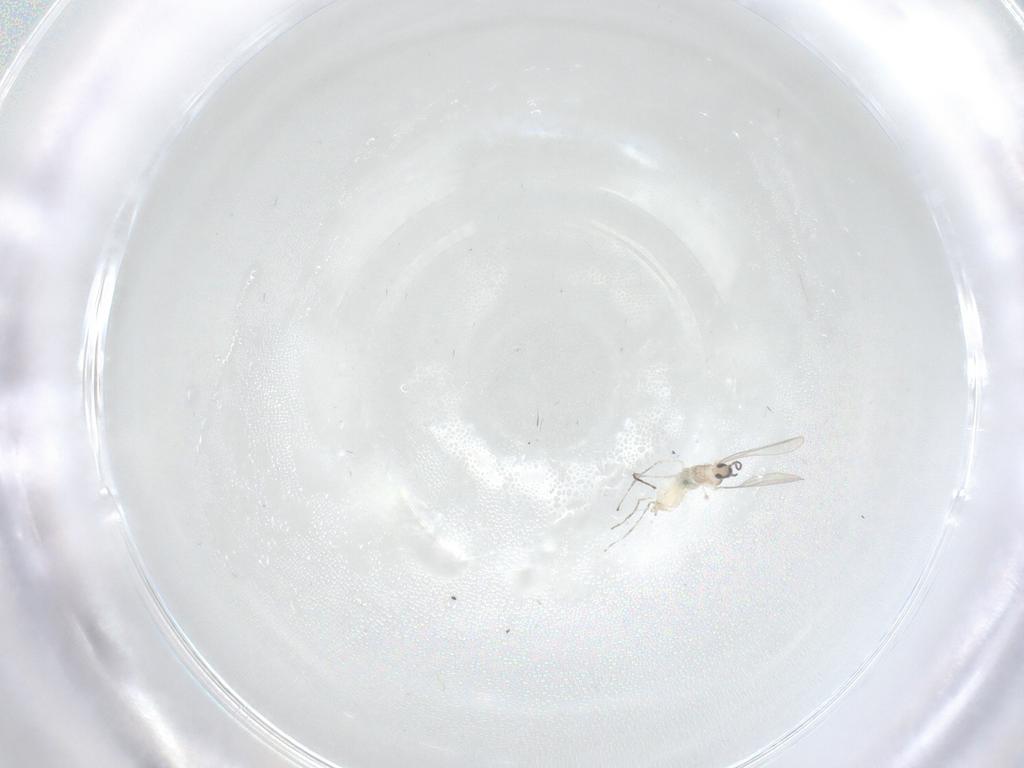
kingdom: Animalia
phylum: Arthropoda
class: Insecta
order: Diptera
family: Cecidomyiidae
